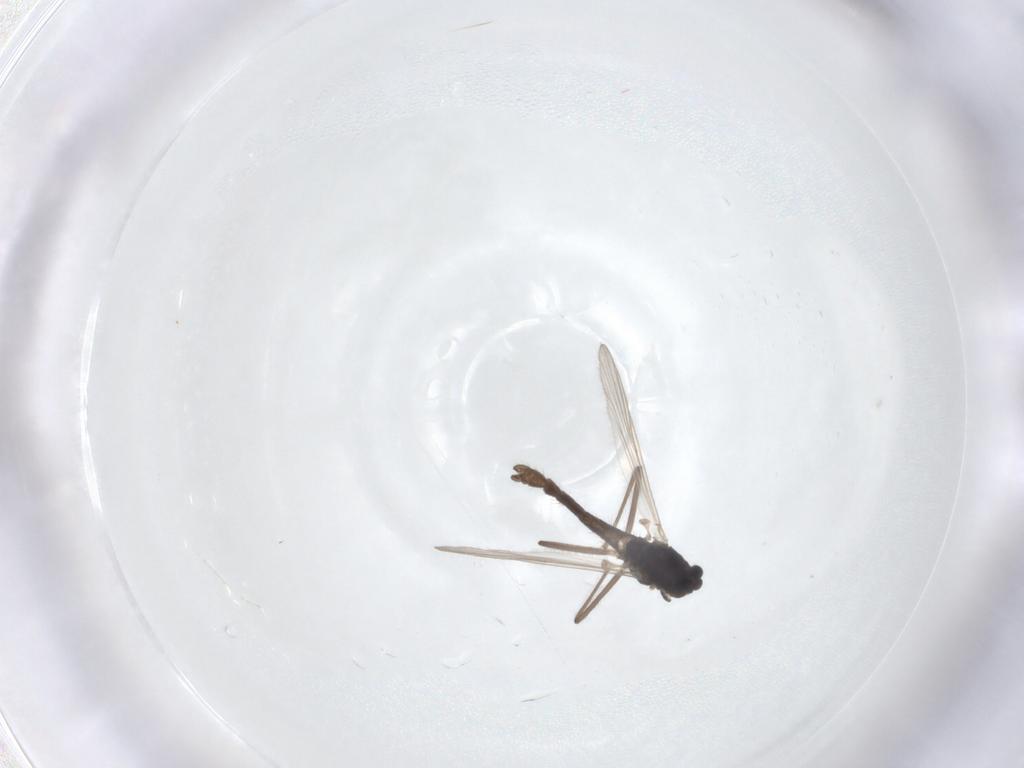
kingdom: Animalia
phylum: Arthropoda
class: Insecta
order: Diptera
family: Chironomidae
